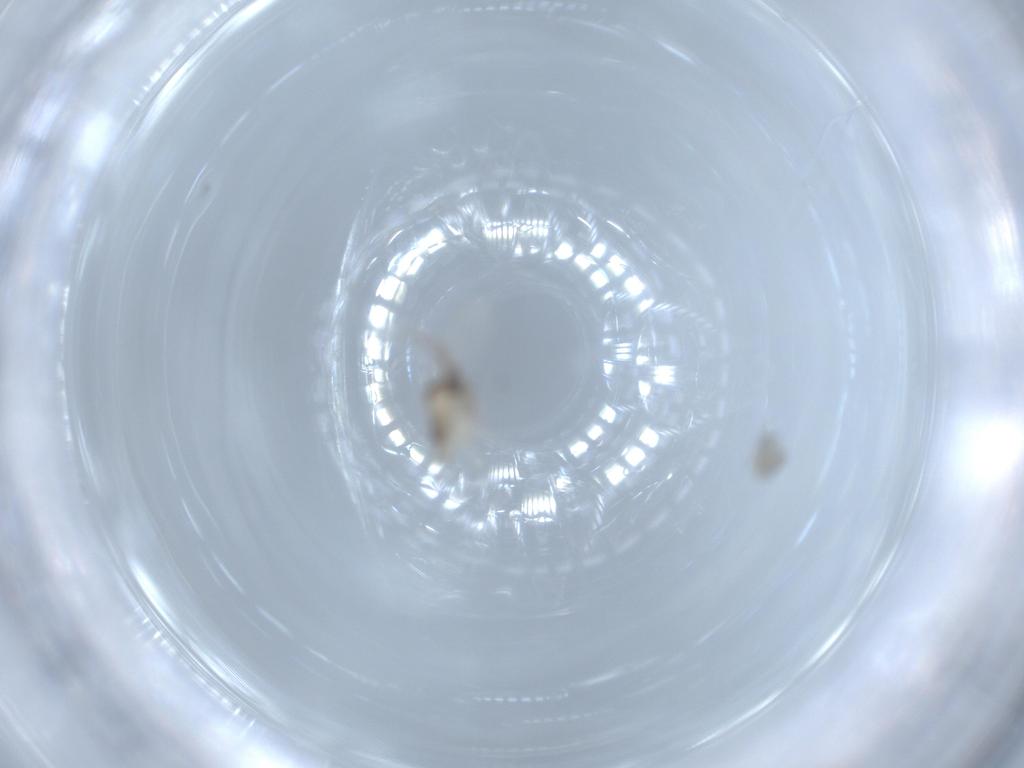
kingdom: Animalia
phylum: Arthropoda
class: Insecta
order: Diptera
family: Cecidomyiidae
